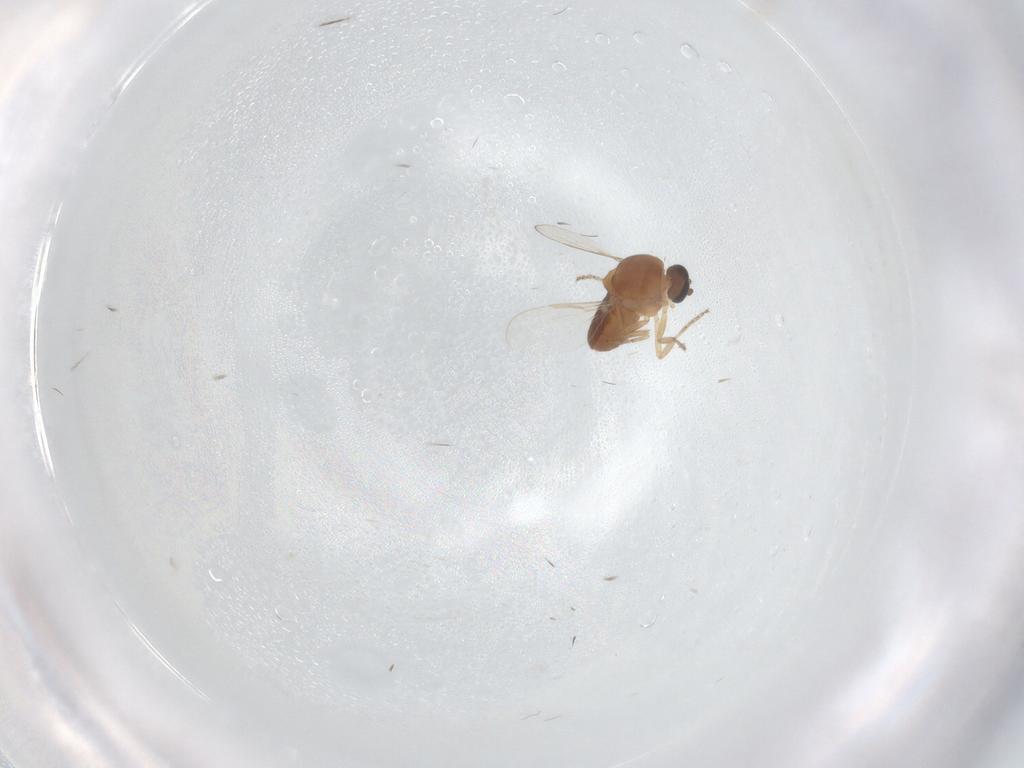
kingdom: Animalia
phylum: Arthropoda
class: Insecta
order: Diptera
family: Ceratopogonidae
